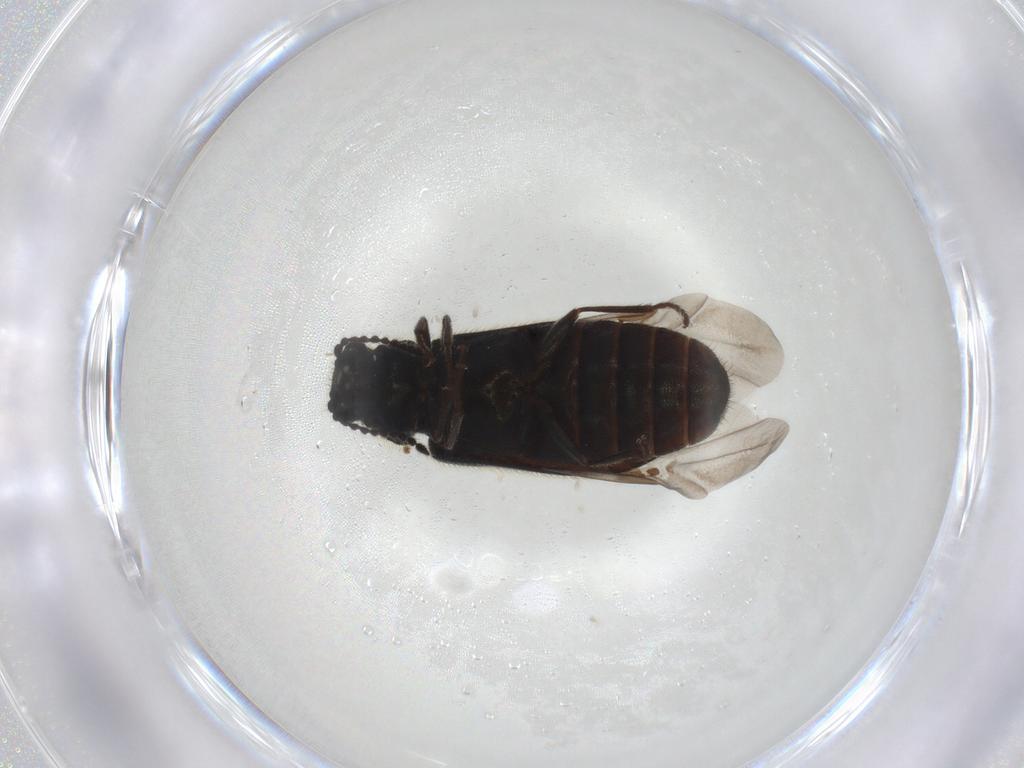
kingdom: Animalia
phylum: Arthropoda
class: Insecta
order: Coleoptera
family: Melyridae
